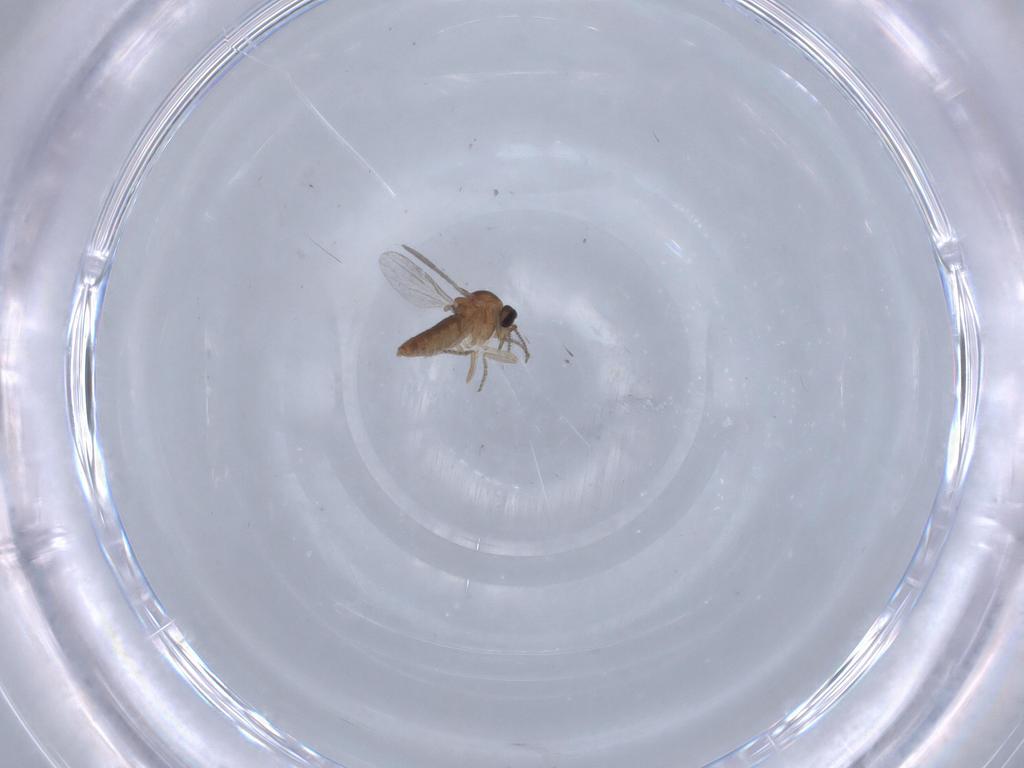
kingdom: Animalia
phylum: Arthropoda
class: Insecta
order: Diptera
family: Ceratopogonidae
